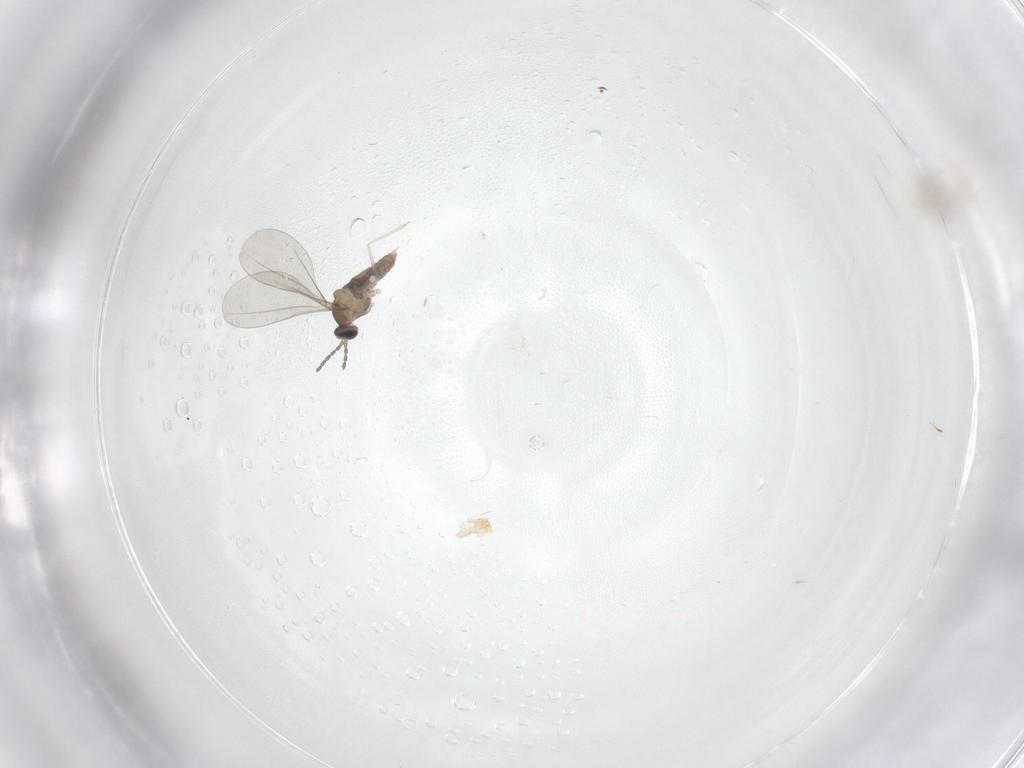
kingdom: Animalia
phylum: Arthropoda
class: Insecta
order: Diptera
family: Cecidomyiidae
